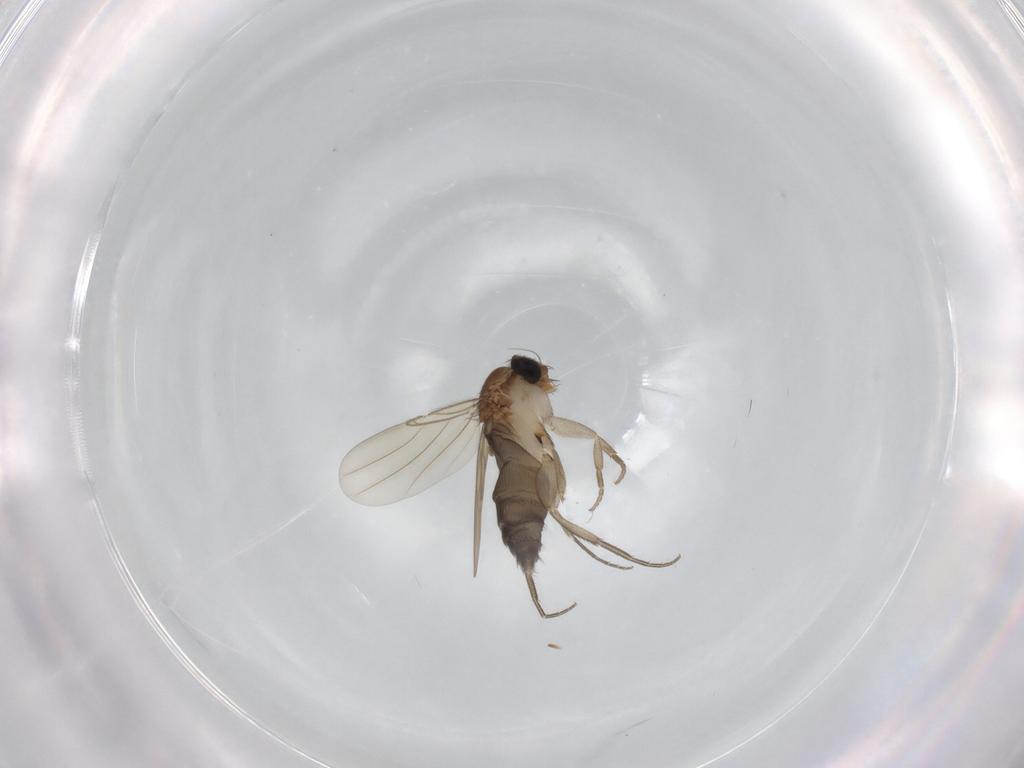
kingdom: Animalia
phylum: Arthropoda
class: Insecta
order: Diptera
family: Phoridae
